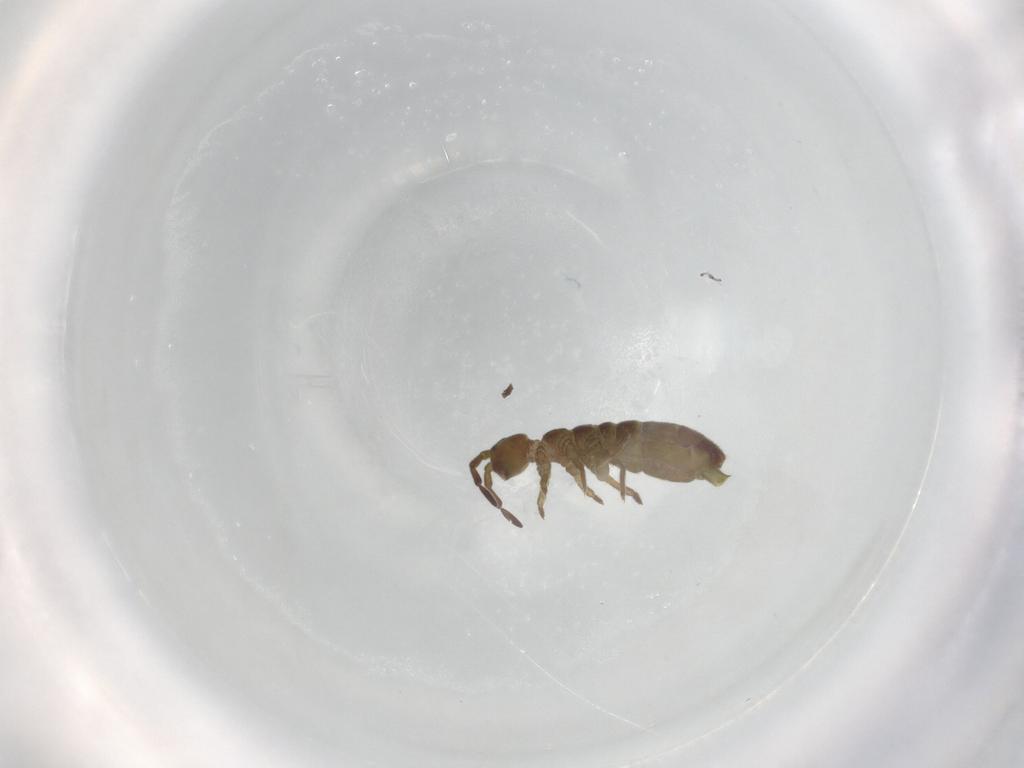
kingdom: Animalia
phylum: Arthropoda
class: Collembola
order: Entomobryomorpha
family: Isotomidae
